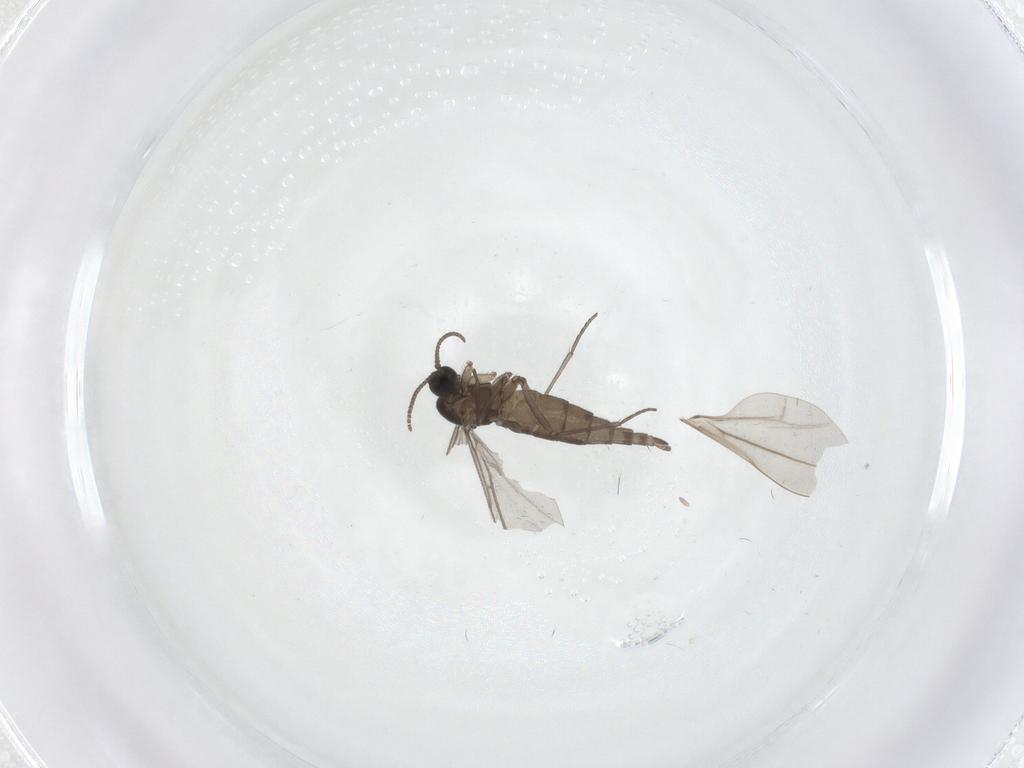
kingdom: Animalia
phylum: Arthropoda
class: Insecta
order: Diptera
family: Cecidomyiidae
